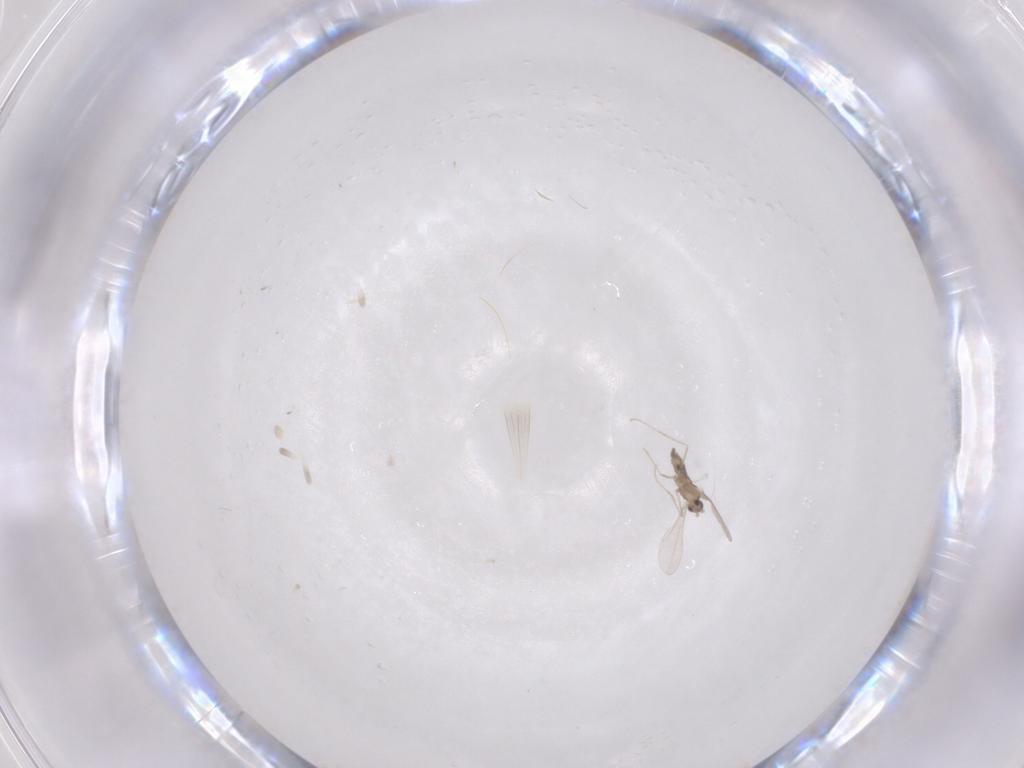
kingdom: Animalia
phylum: Arthropoda
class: Insecta
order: Diptera
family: Cecidomyiidae
